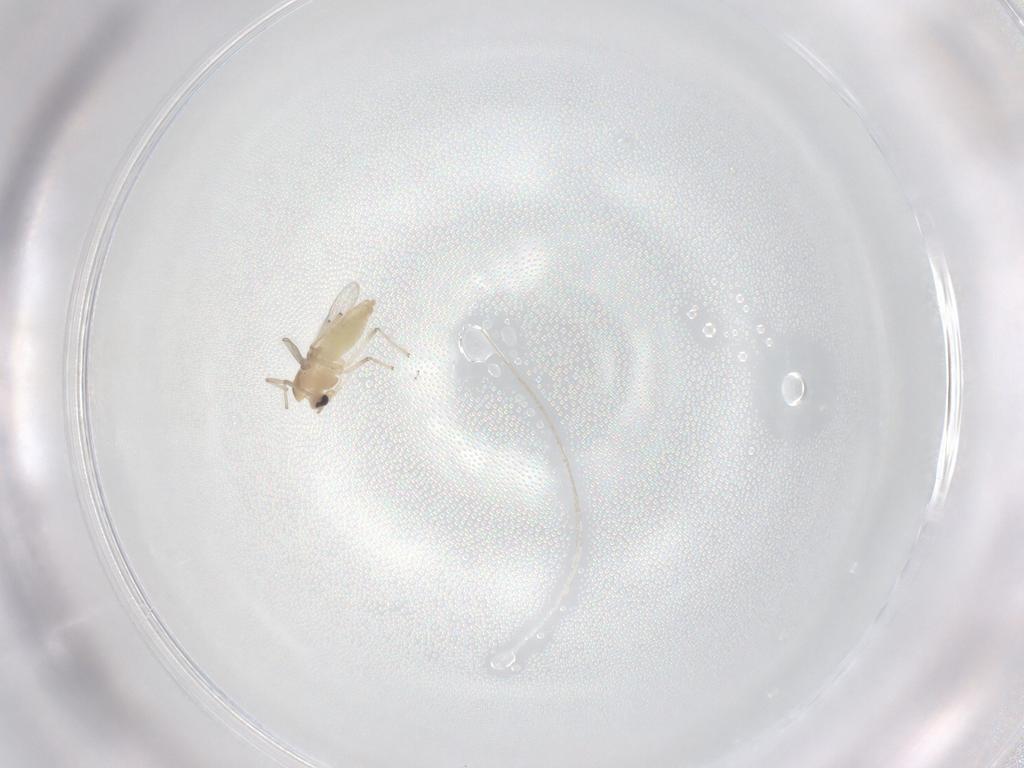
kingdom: Animalia
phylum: Arthropoda
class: Insecta
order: Diptera
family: Chironomidae
